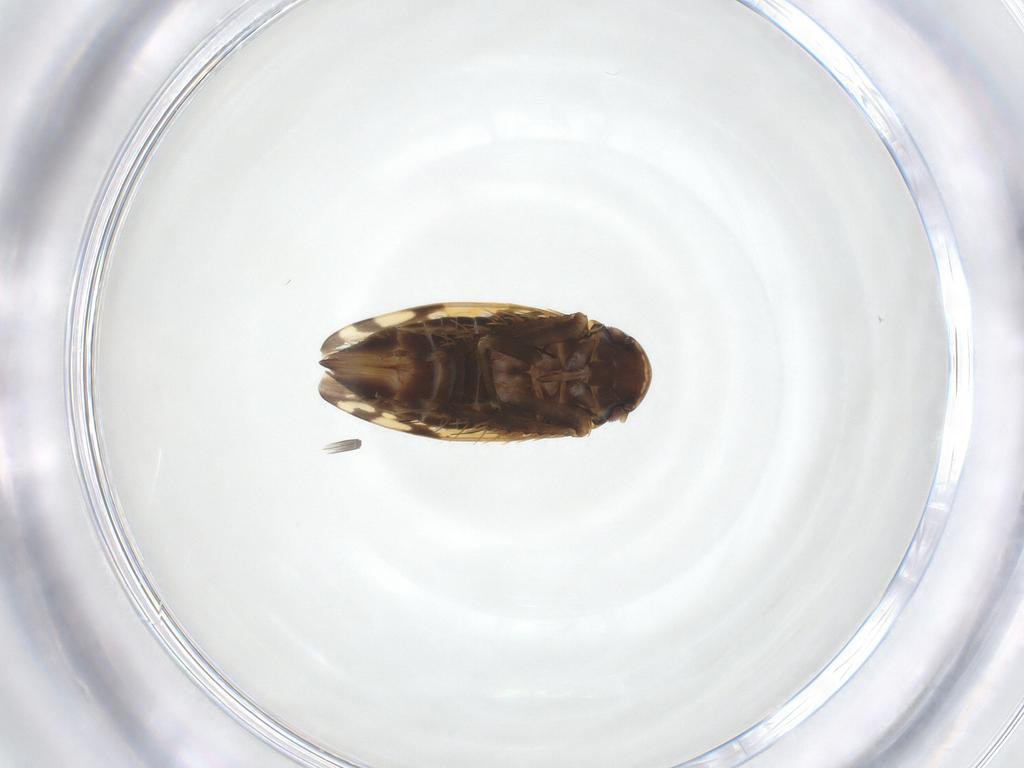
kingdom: Animalia
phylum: Arthropoda
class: Insecta
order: Hemiptera
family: Cicadellidae
